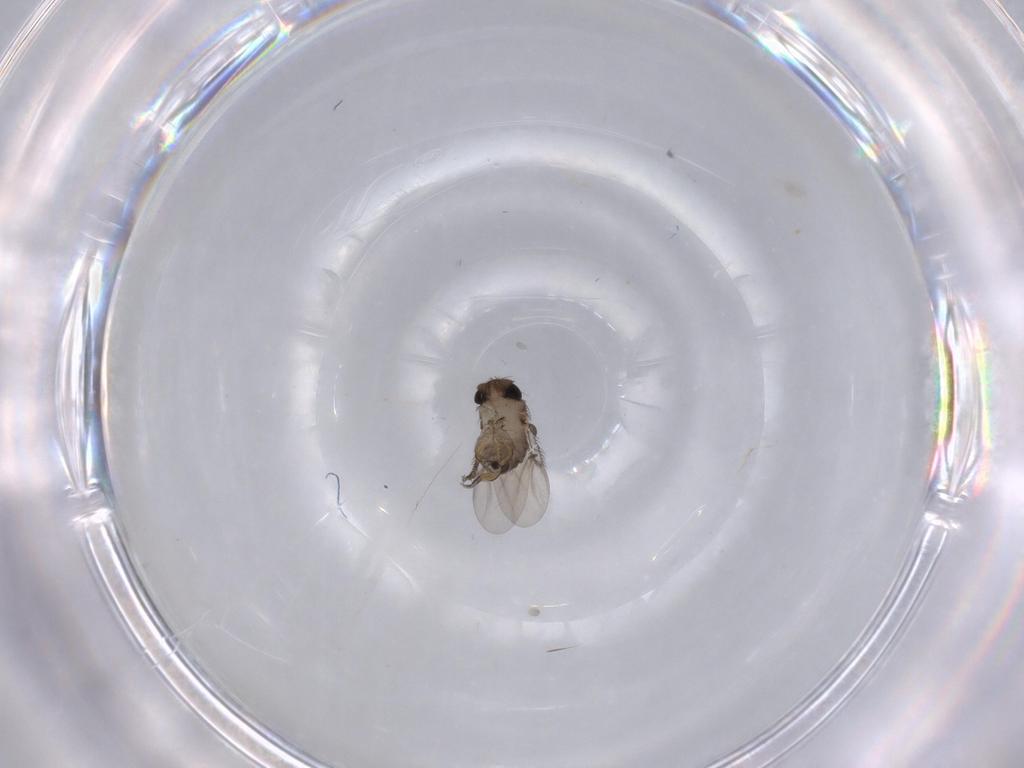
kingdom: Animalia
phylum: Arthropoda
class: Insecta
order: Diptera
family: Phoridae
